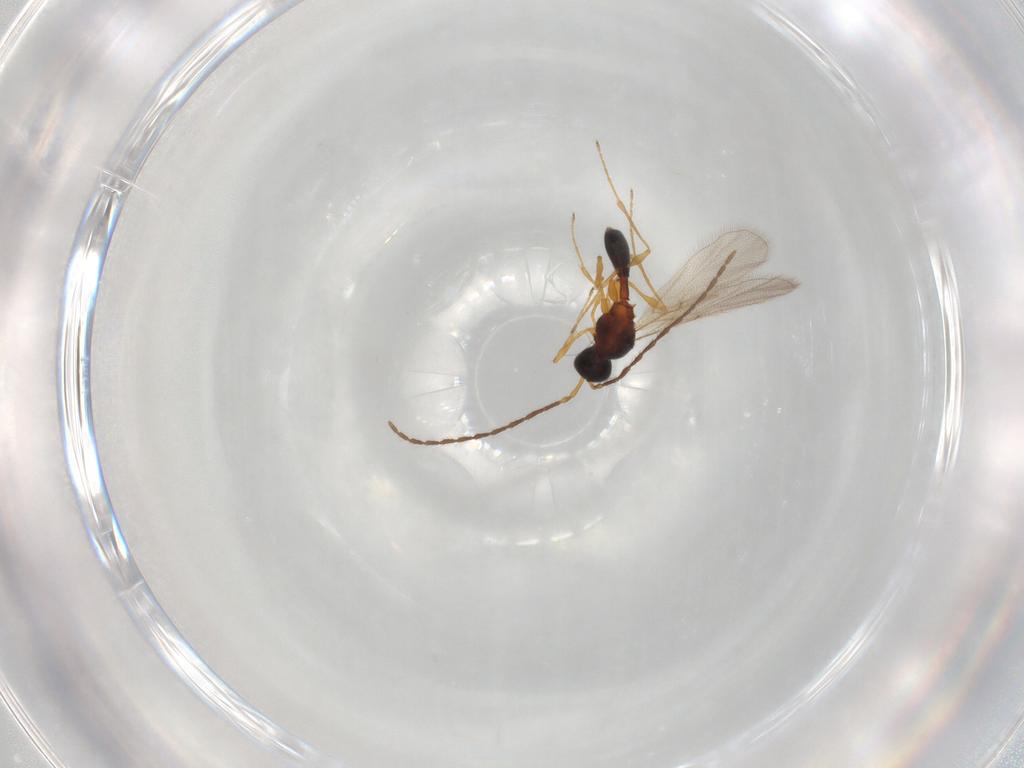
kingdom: Animalia
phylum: Arthropoda
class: Insecta
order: Hymenoptera
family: Diapriidae
